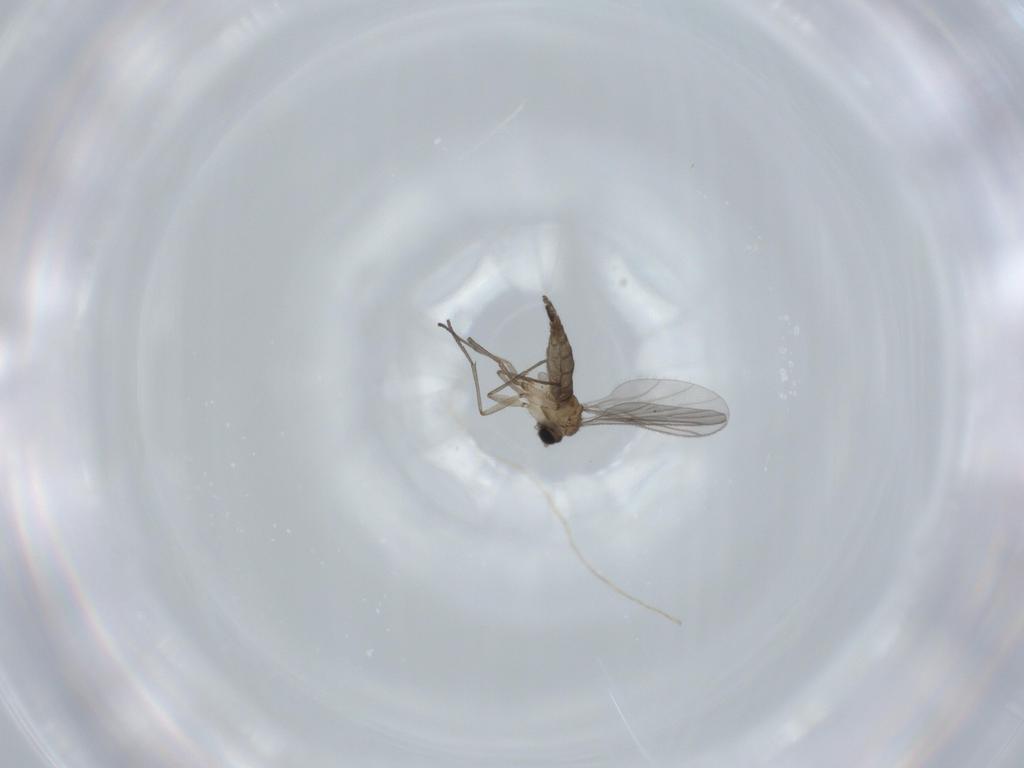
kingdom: Animalia
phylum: Arthropoda
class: Insecta
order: Diptera
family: Sciaridae
